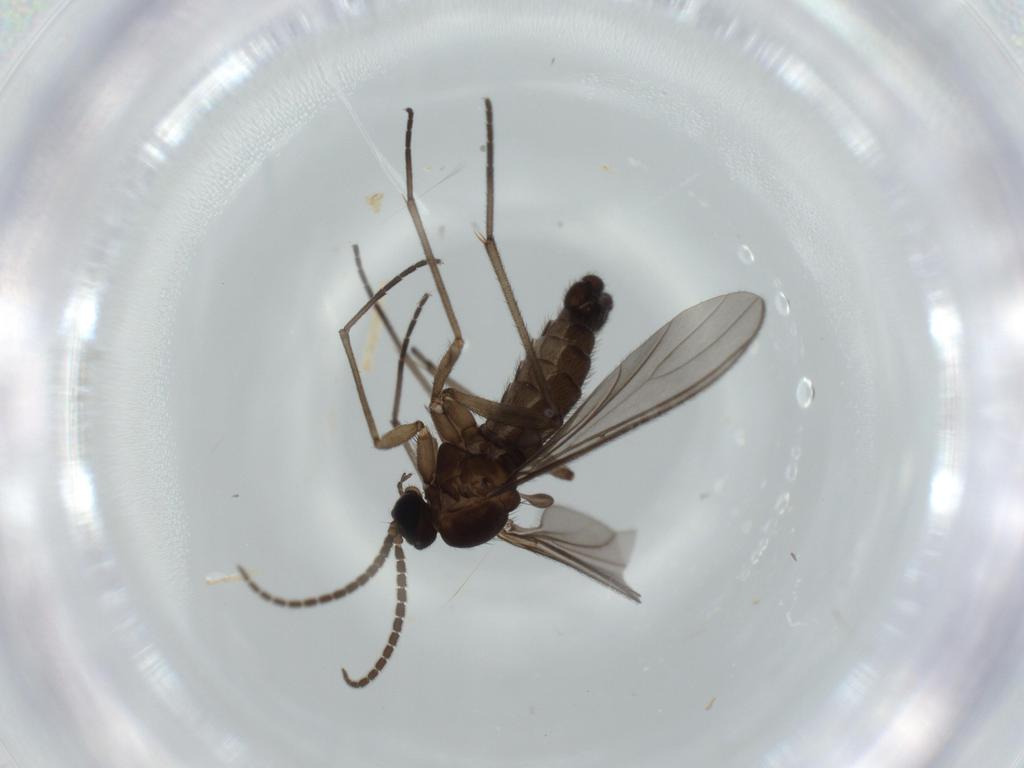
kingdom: Animalia
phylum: Arthropoda
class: Insecta
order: Diptera
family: Sciaridae
